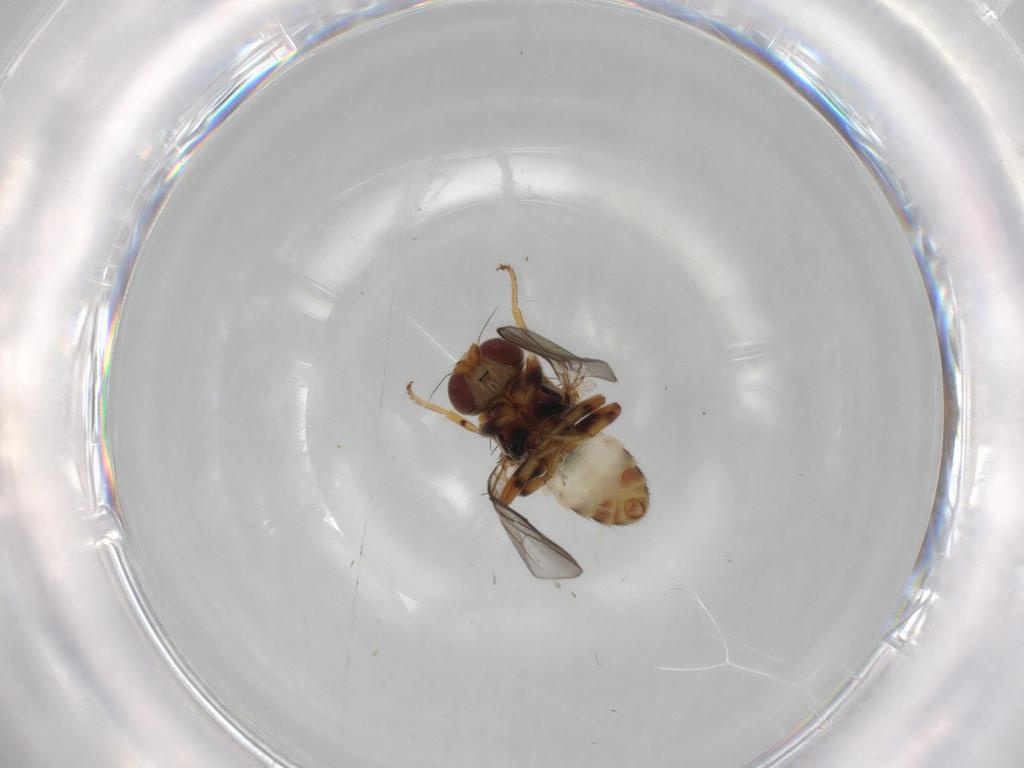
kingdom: Animalia
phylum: Arthropoda
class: Insecta
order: Diptera
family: Chloropidae
